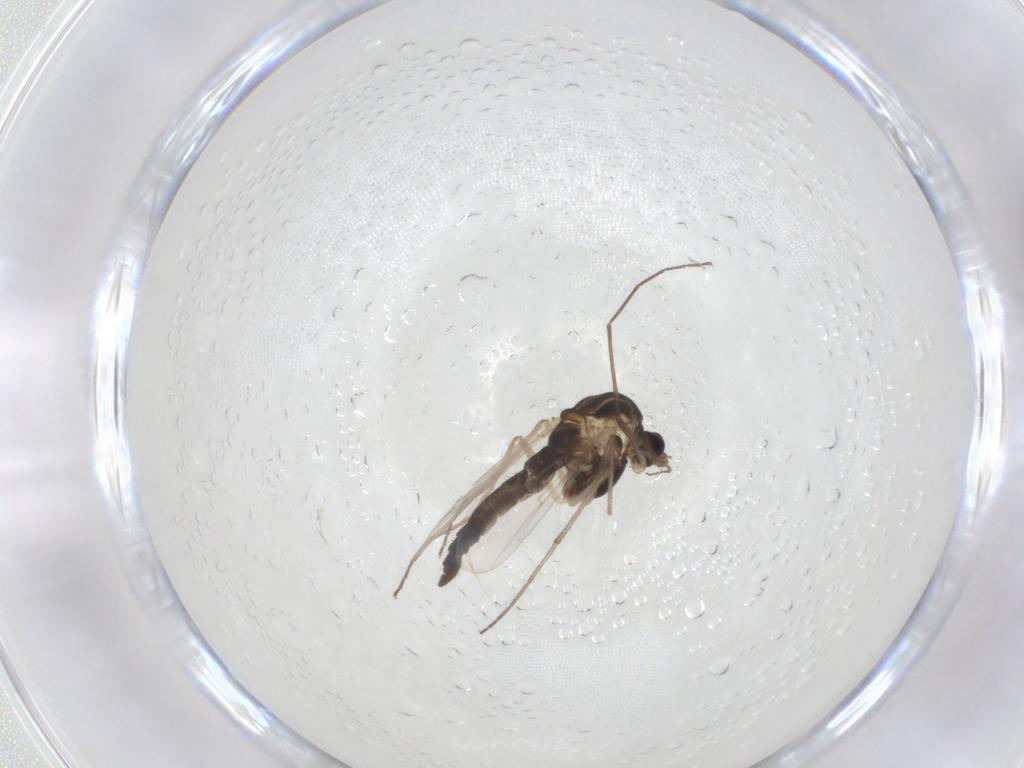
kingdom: Animalia
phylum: Arthropoda
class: Insecta
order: Diptera
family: Chironomidae
